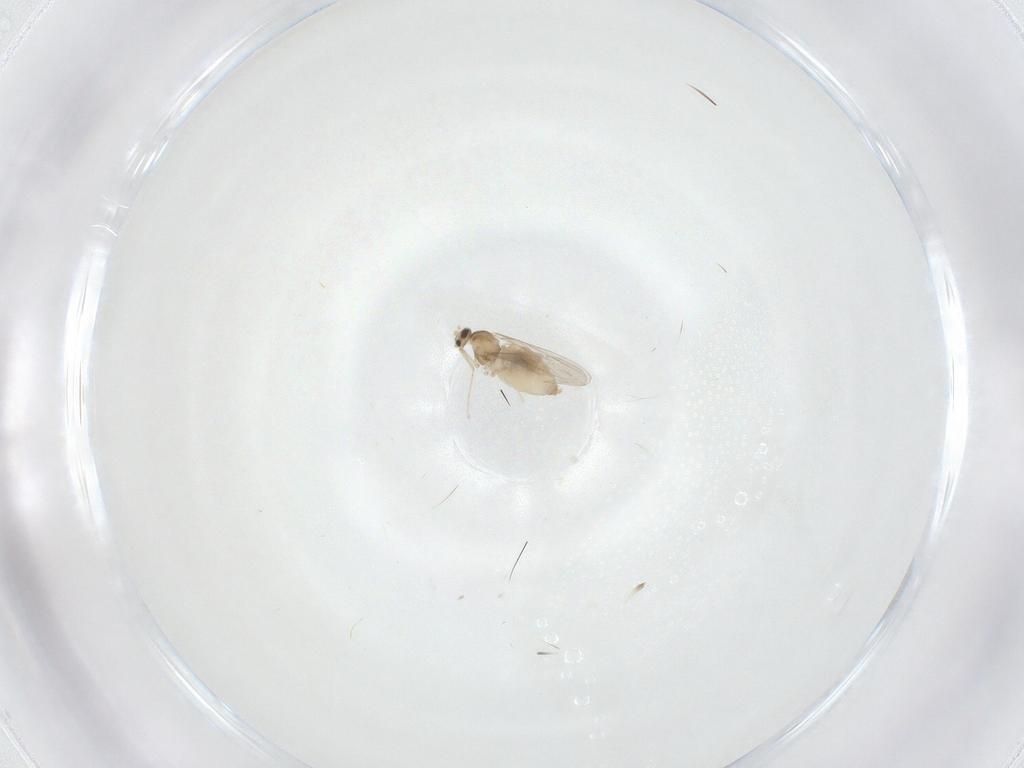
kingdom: Animalia
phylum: Arthropoda
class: Insecta
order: Diptera
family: Cecidomyiidae
